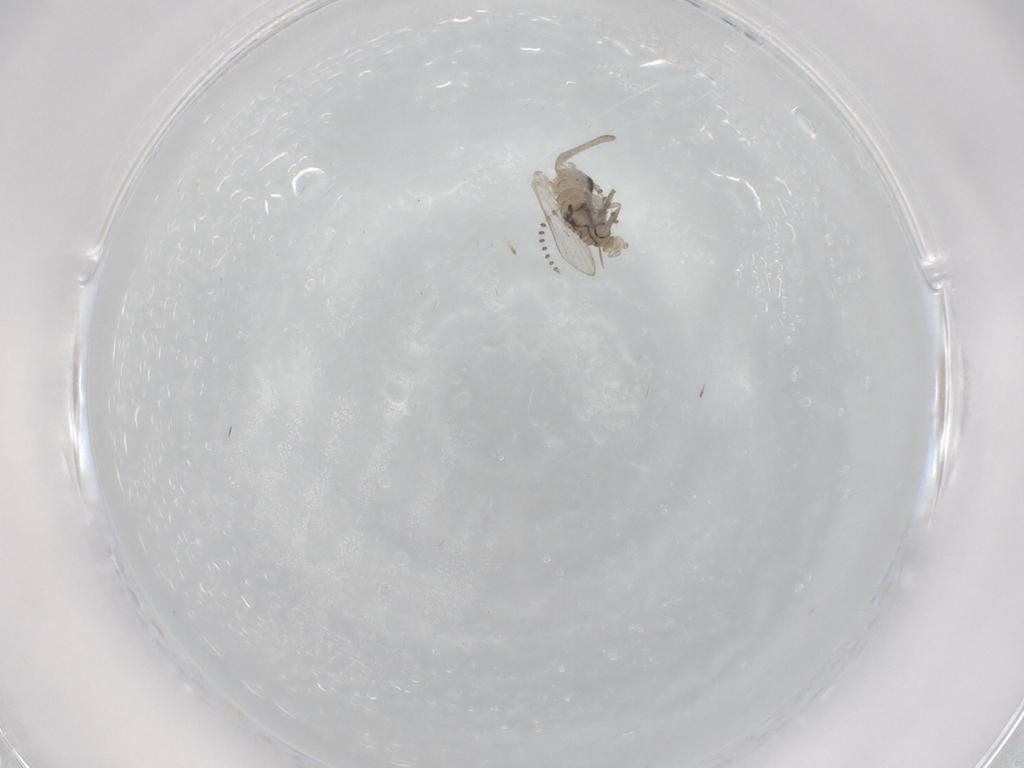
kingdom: Animalia
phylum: Arthropoda
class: Insecta
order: Diptera
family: Psychodidae
